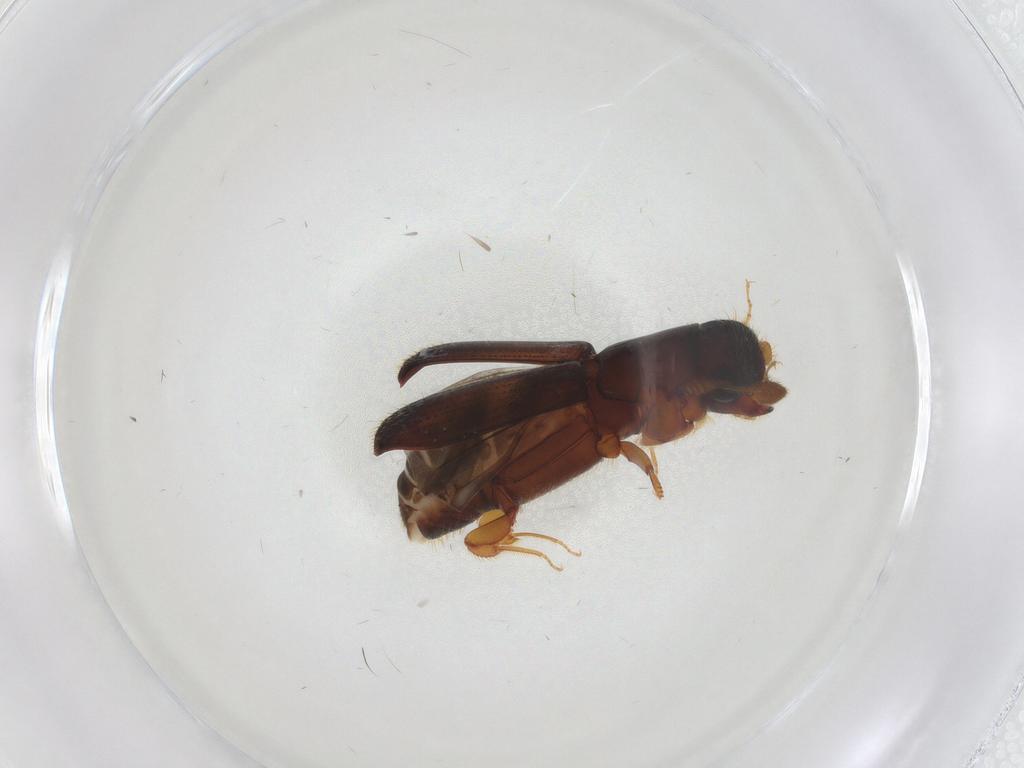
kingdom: Animalia
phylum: Arthropoda
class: Insecta
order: Coleoptera
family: Curculionidae
